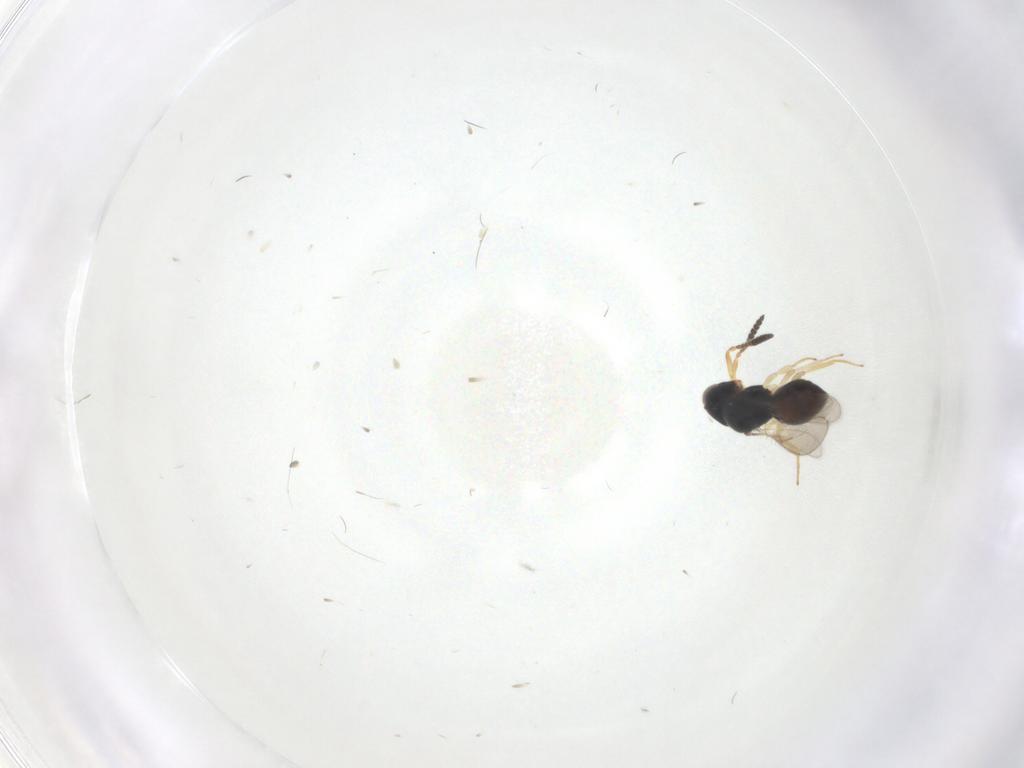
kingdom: Animalia
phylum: Arthropoda
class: Insecta
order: Hymenoptera
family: Scelionidae
